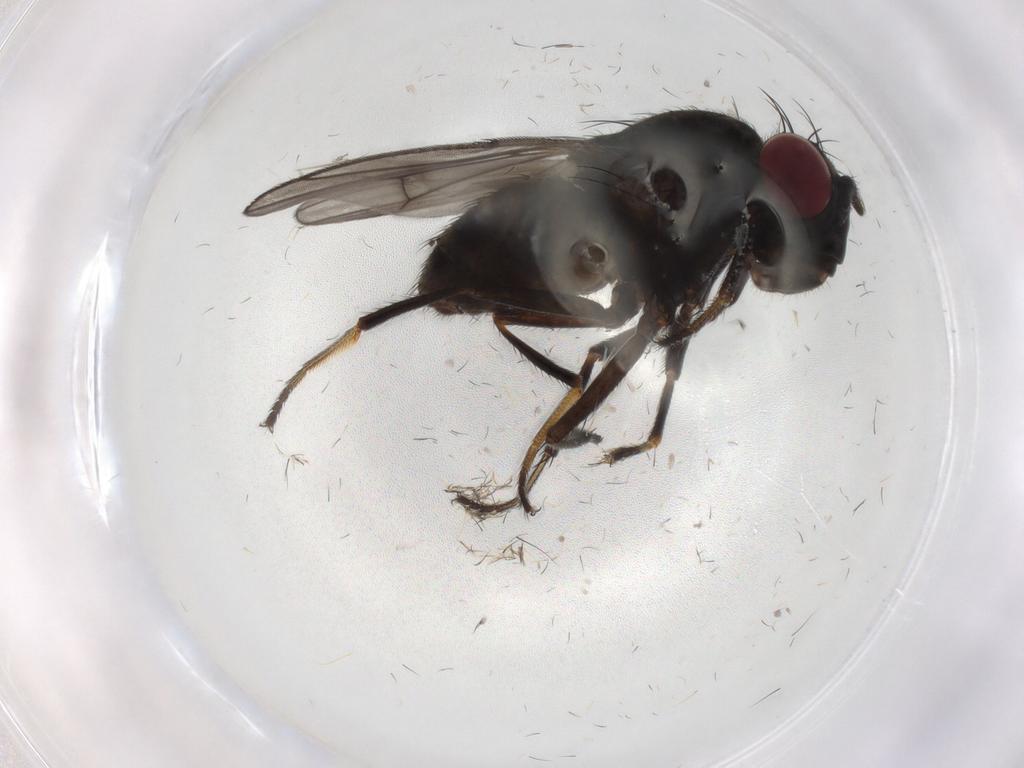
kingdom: Animalia
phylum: Arthropoda
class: Insecta
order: Diptera
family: Ephydridae
